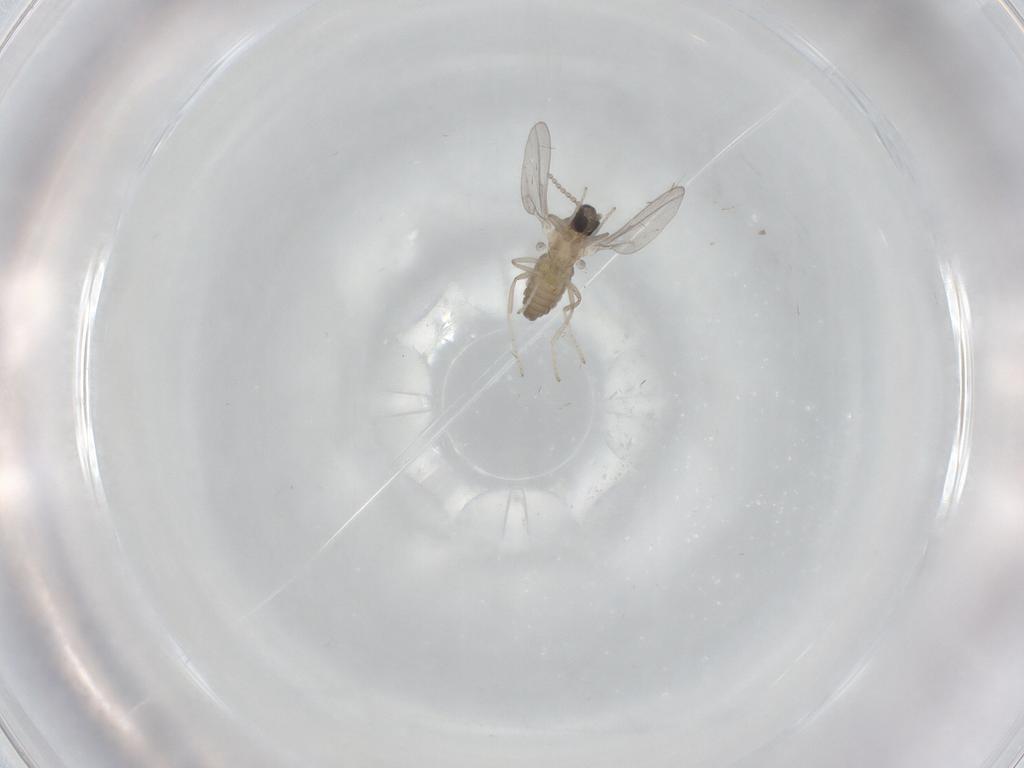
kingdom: Animalia
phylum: Arthropoda
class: Insecta
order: Diptera
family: Cecidomyiidae
